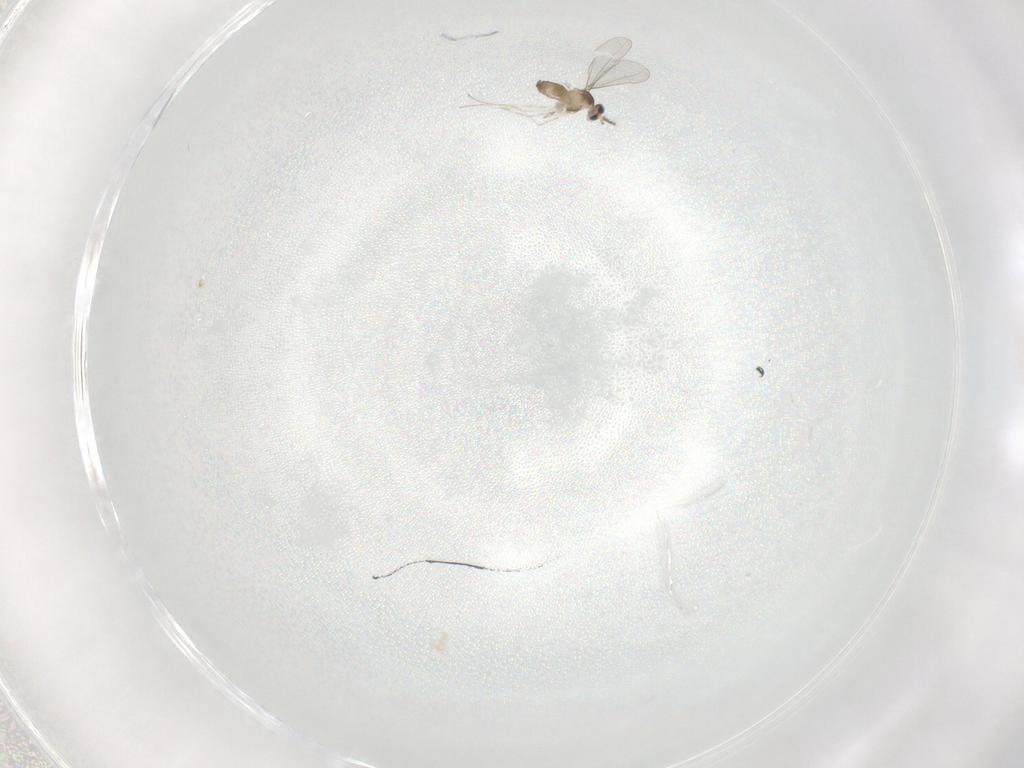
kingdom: Animalia
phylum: Arthropoda
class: Insecta
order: Diptera
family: Cecidomyiidae
